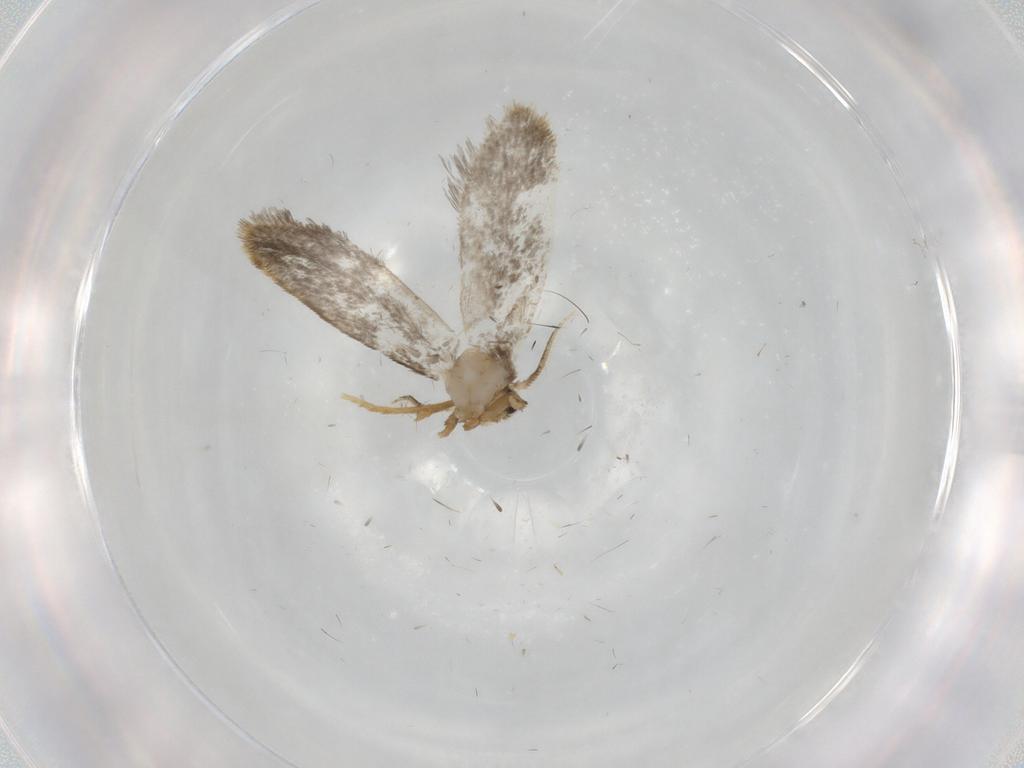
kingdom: Animalia
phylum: Arthropoda
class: Insecta
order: Lepidoptera
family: Psychidae
